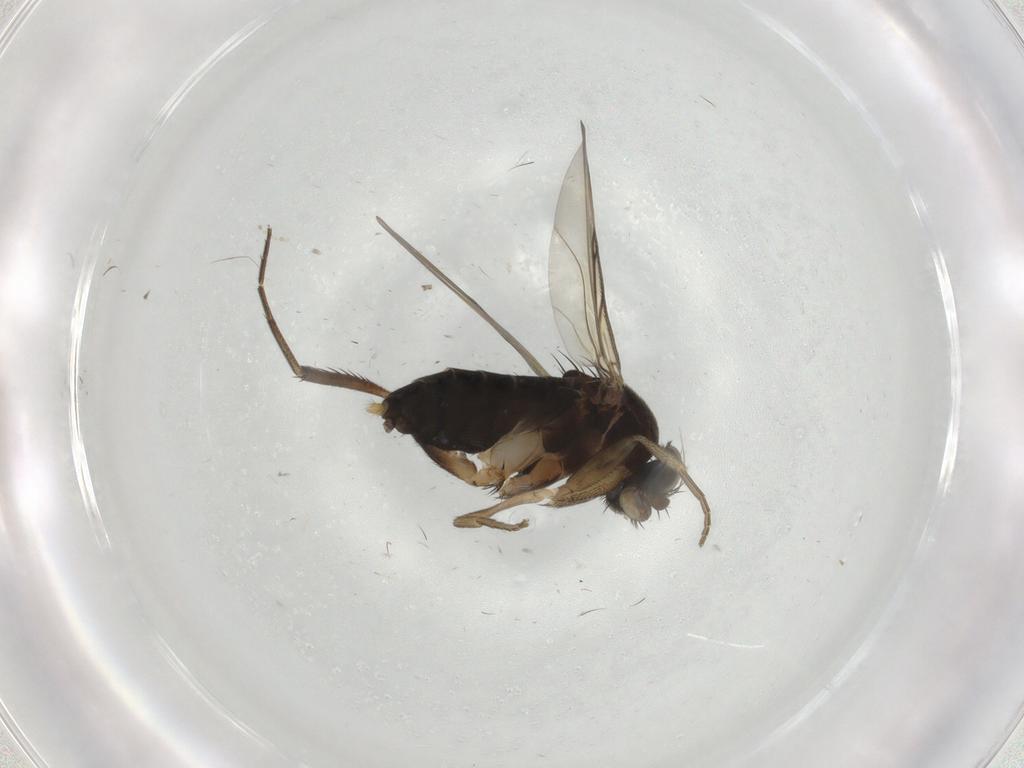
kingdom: Animalia
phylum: Arthropoda
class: Insecta
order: Diptera
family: Phoridae
